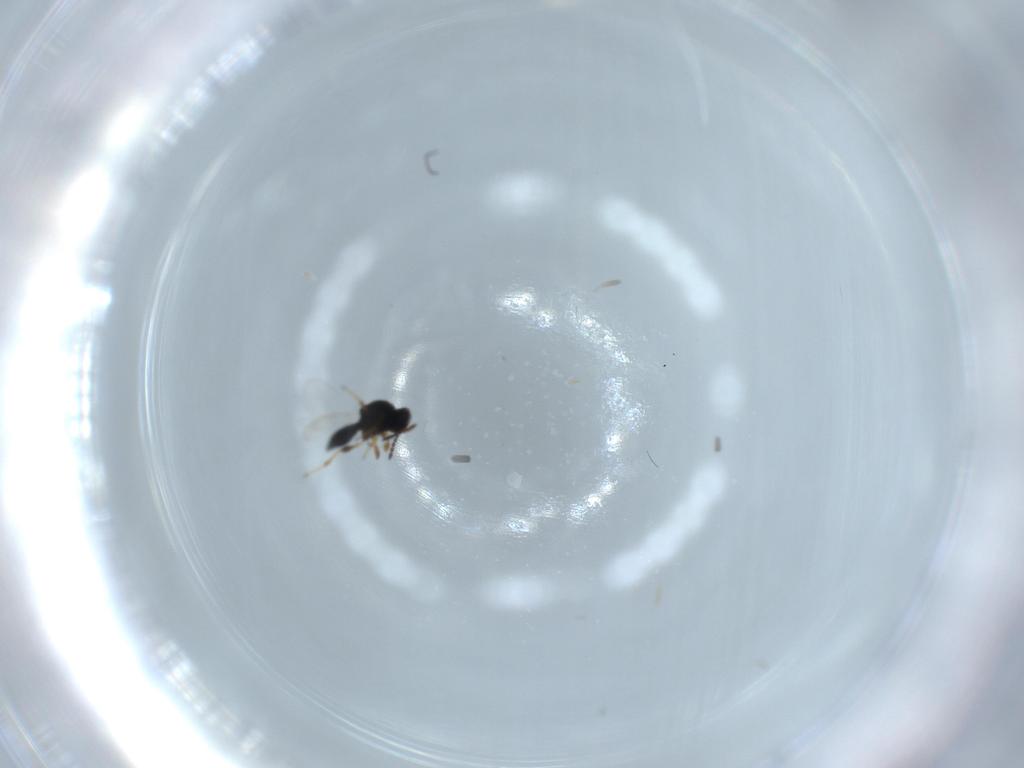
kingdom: Animalia
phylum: Arthropoda
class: Insecta
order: Hymenoptera
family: Platygastridae
